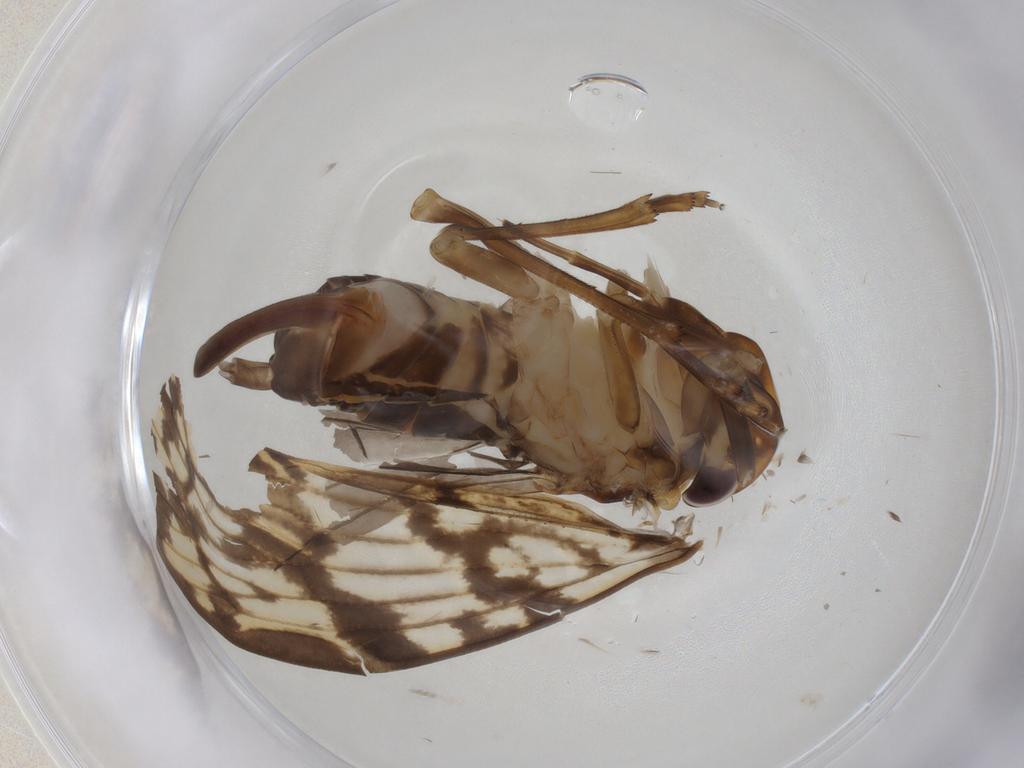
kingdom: Animalia
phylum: Arthropoda
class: Insecta
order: Hemiptera
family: Cixiidae
